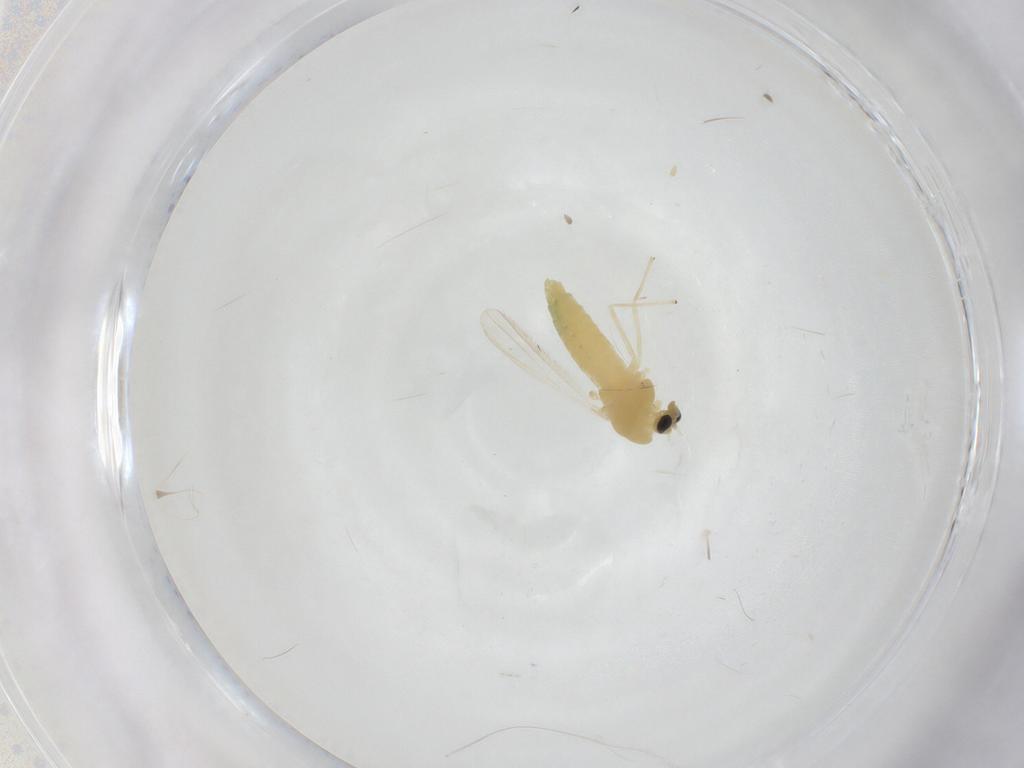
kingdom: Animalia
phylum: Arthropoda
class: Insecta
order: Diptera
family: Chironomidae
